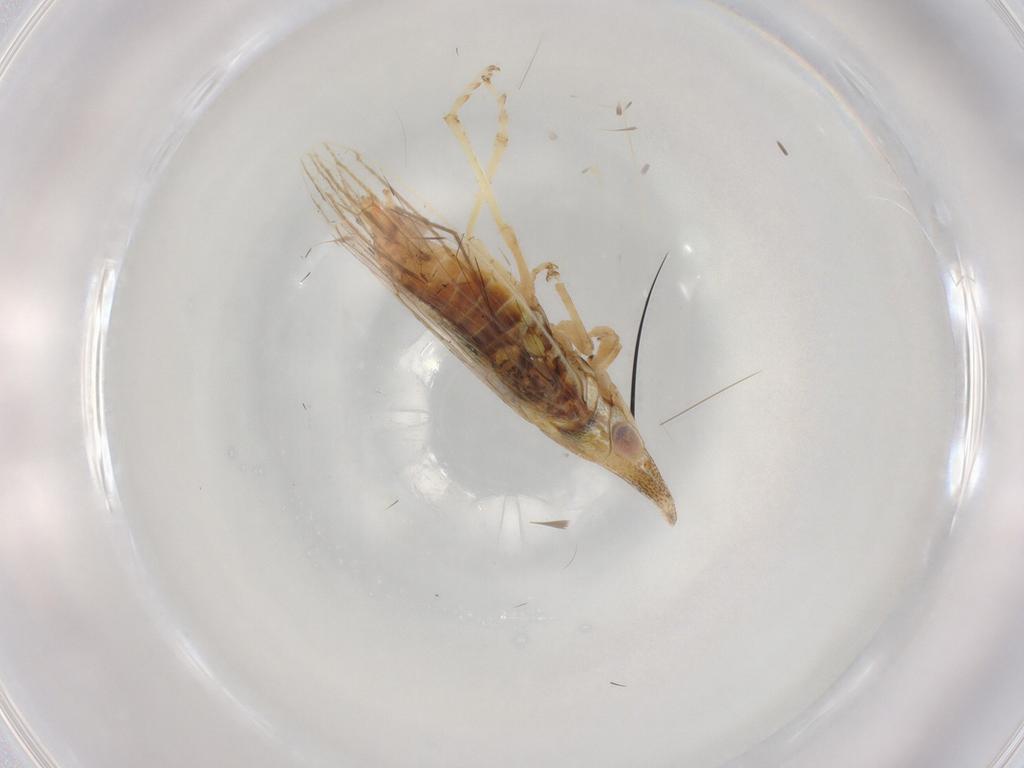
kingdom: Animalia
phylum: Arthropoda
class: Insecta
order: Hemiptera
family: Cicadellidae
